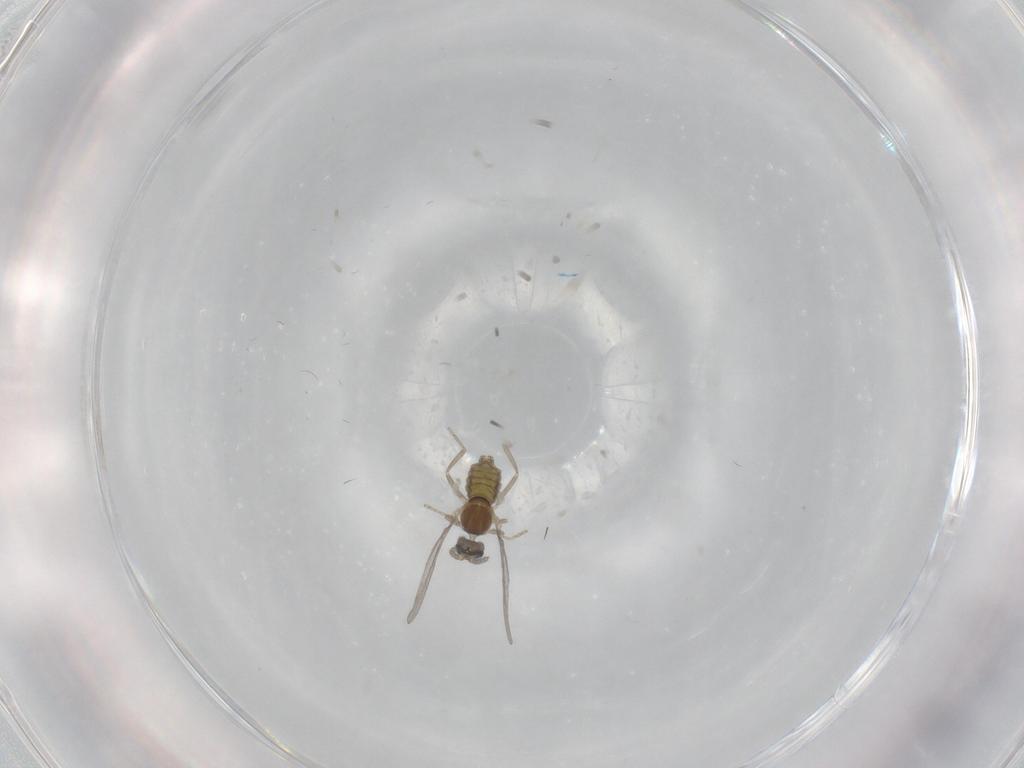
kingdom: Animalia
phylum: Arthropoda
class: Insecta
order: Diptera
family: Cecidomyiidae
